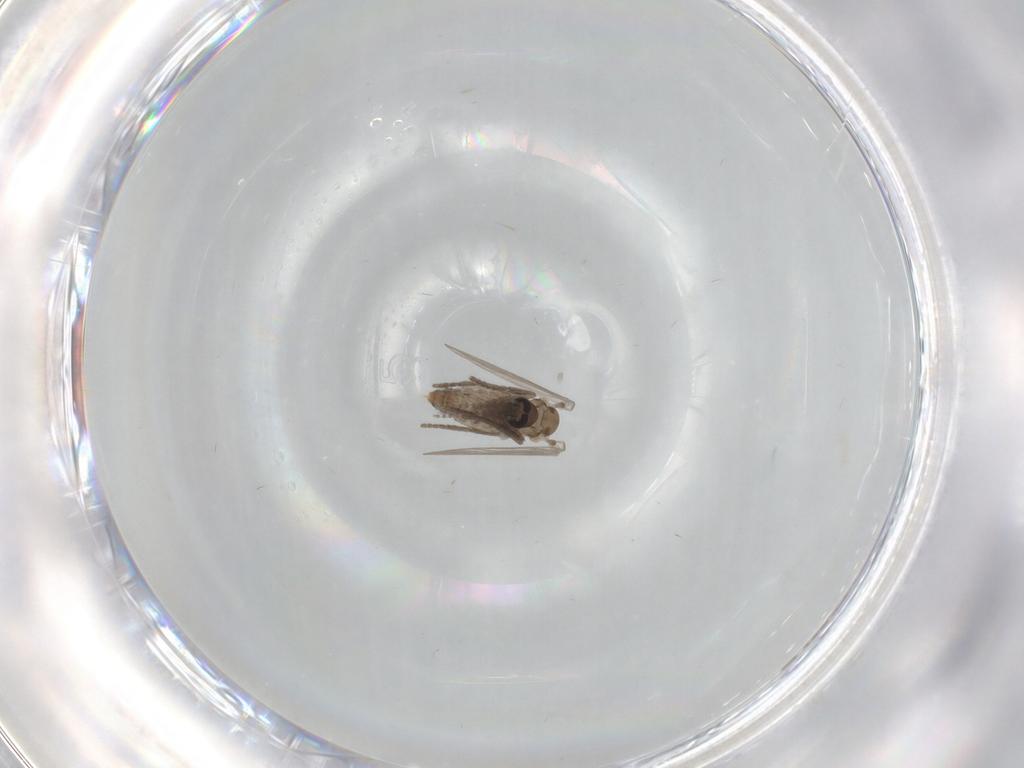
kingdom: Animalia
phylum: Arthropoda
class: Insecta
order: Diptera
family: Psychodidae
